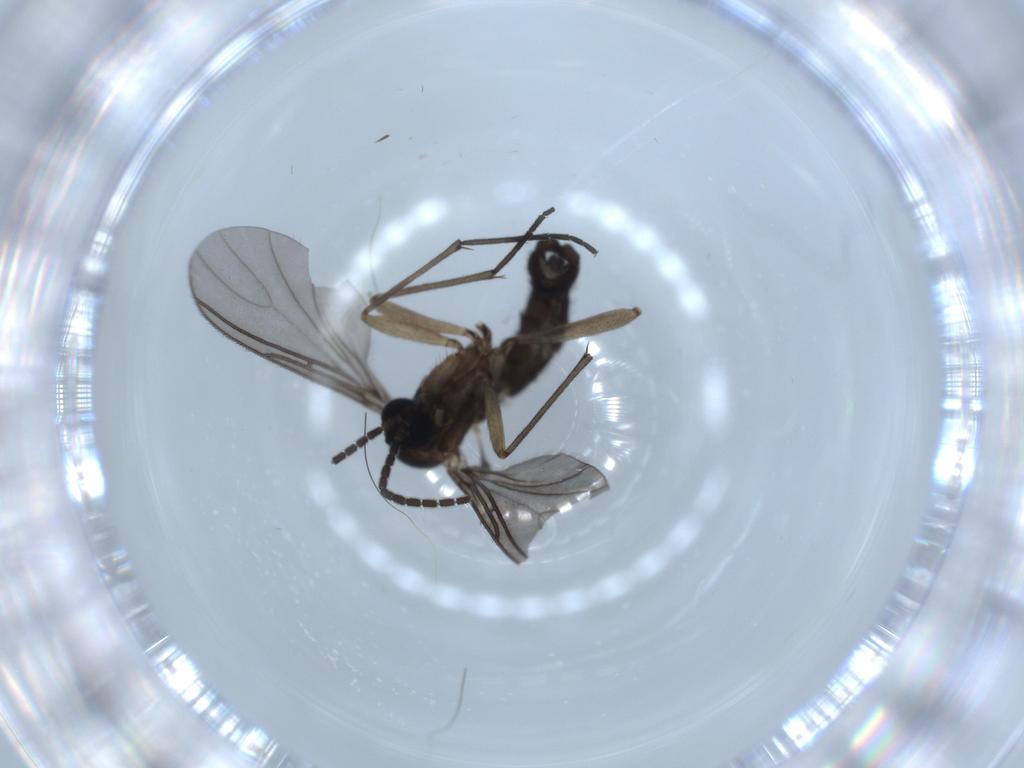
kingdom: Animalia
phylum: Arthropoda
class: Insecta
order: Diptera
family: Sciaridae
